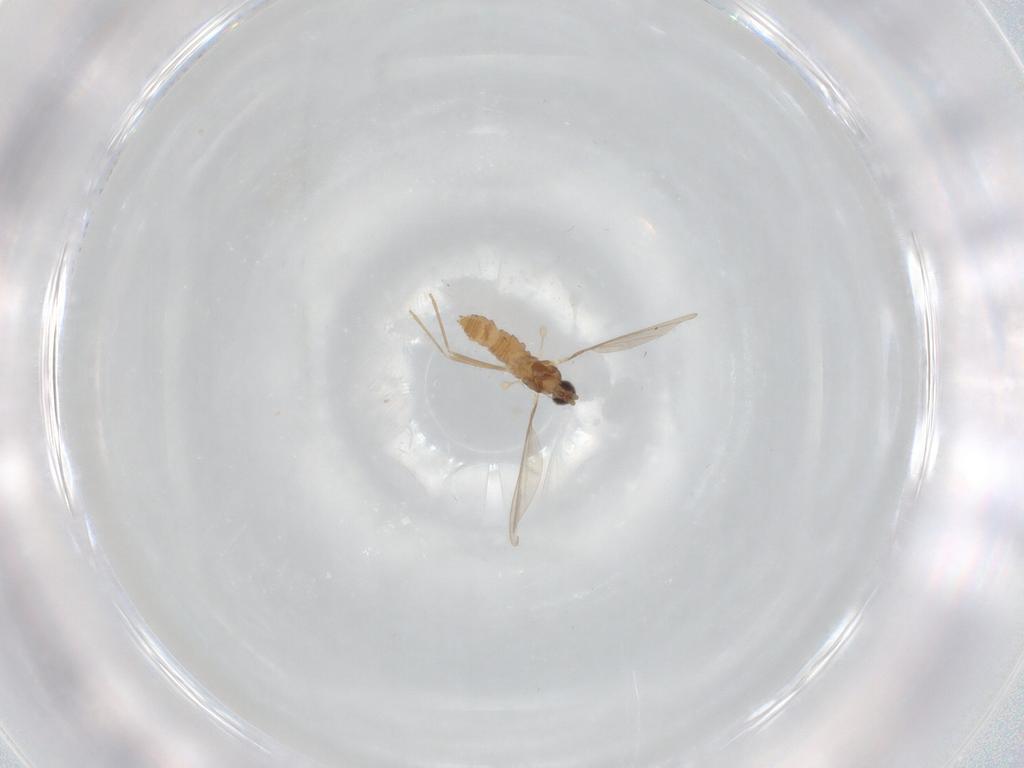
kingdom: Animalia
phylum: Arthropoda
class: Insecta
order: Diptera
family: Cecidomyiidae
